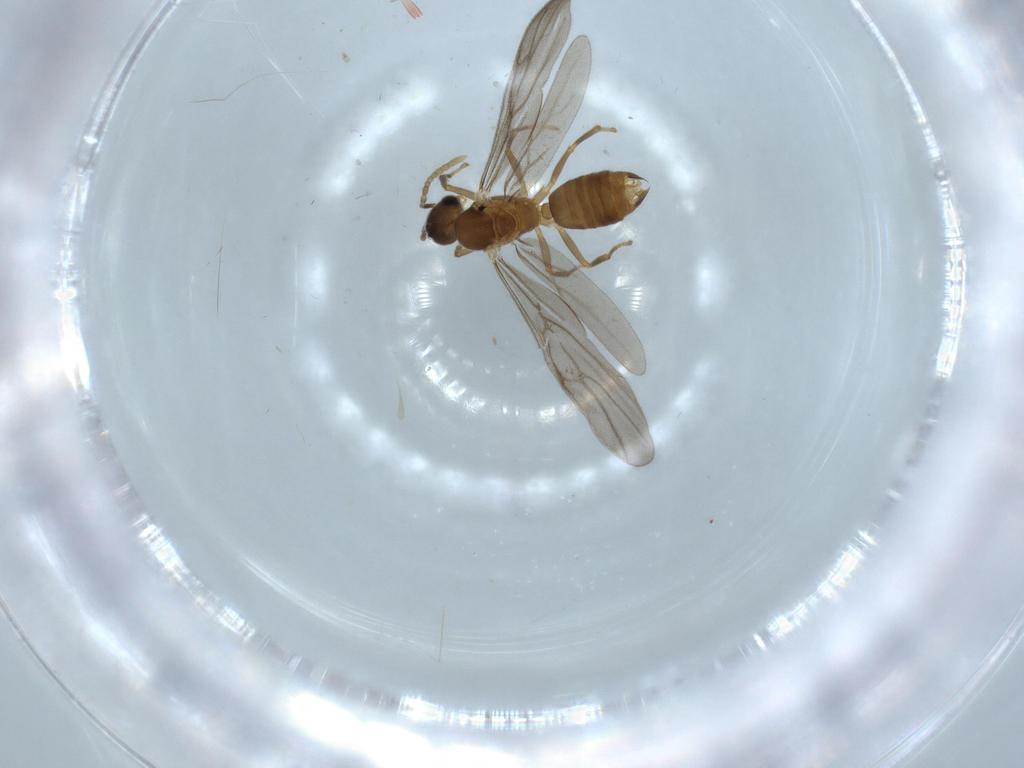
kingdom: Animalia
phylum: Arthropoda
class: Insecta
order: Hymenoptera
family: Formicidae
